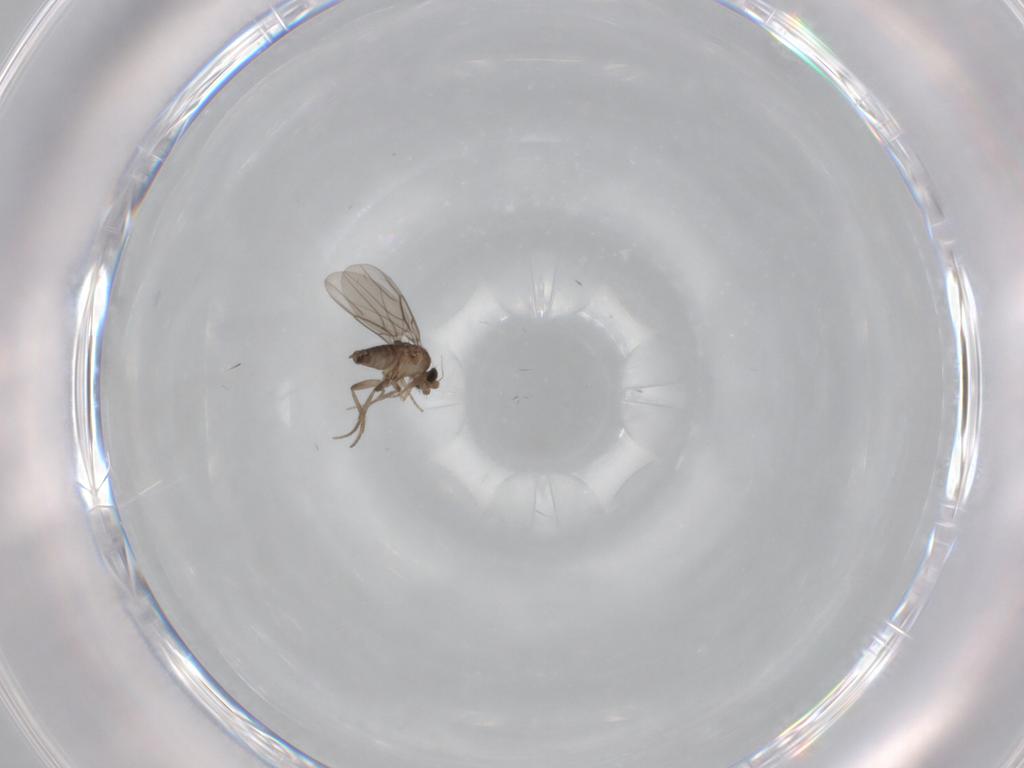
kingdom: Animalia
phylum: Arthropoda
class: Insecta
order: Diptera
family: Phoridae
